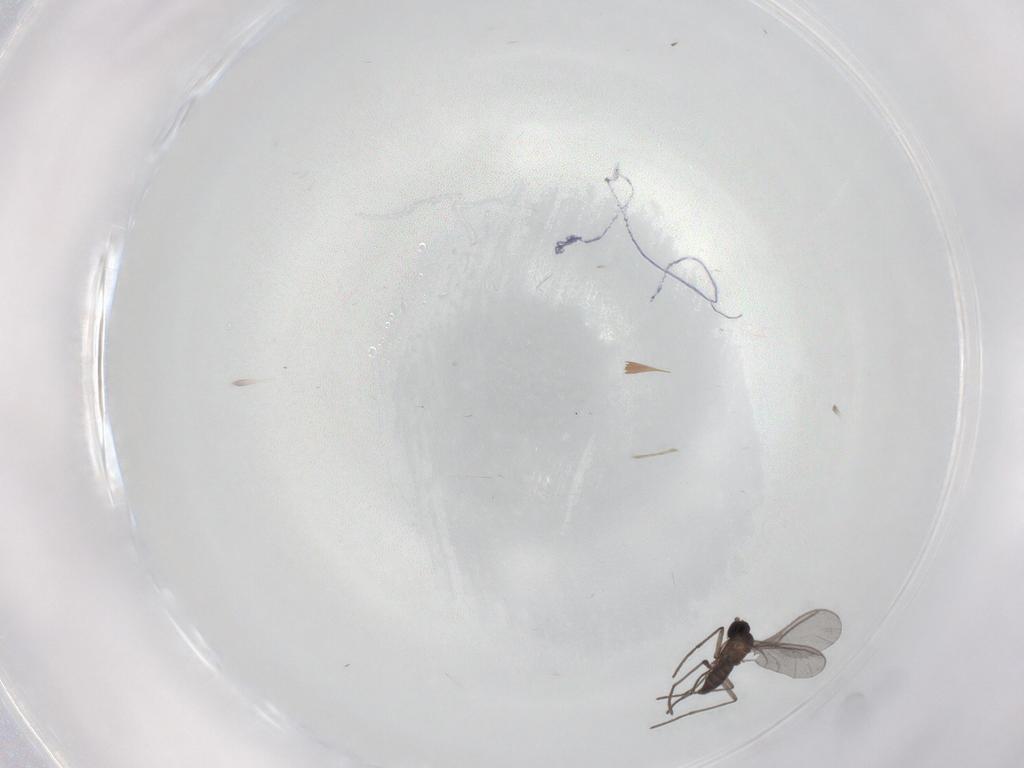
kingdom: Animalia
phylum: Arthropoda
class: Insecta
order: Diptera
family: Sciaridae
